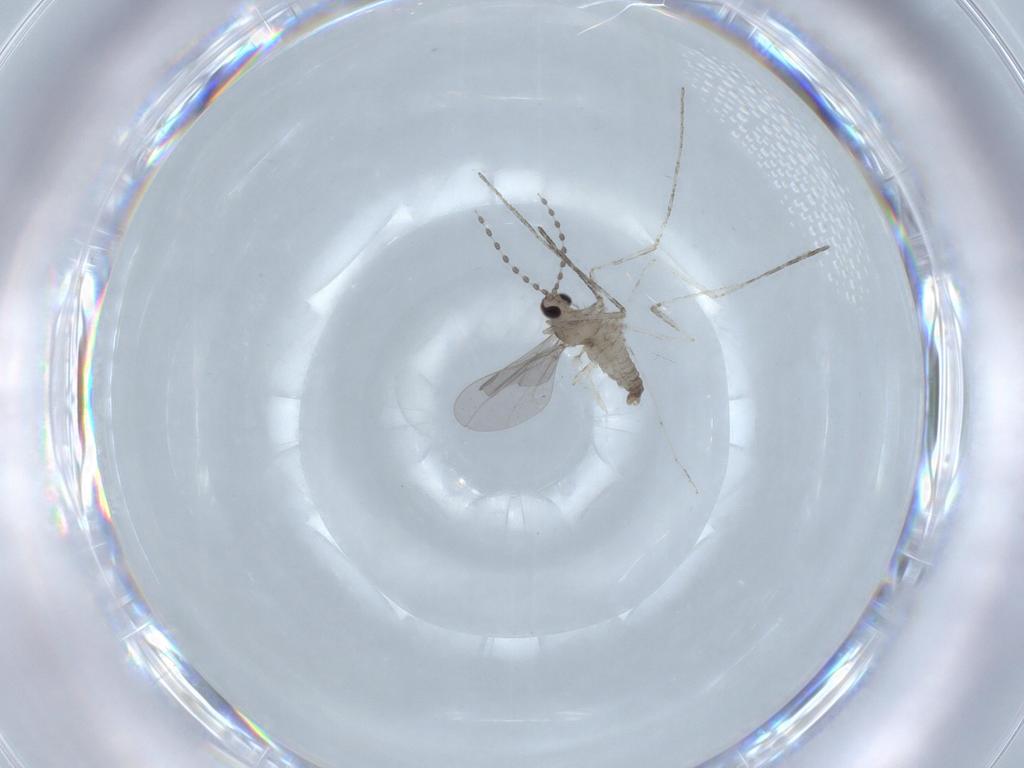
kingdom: Animalia
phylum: Arthropoda
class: Insecta
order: Diptera
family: Cecidomyiidae
